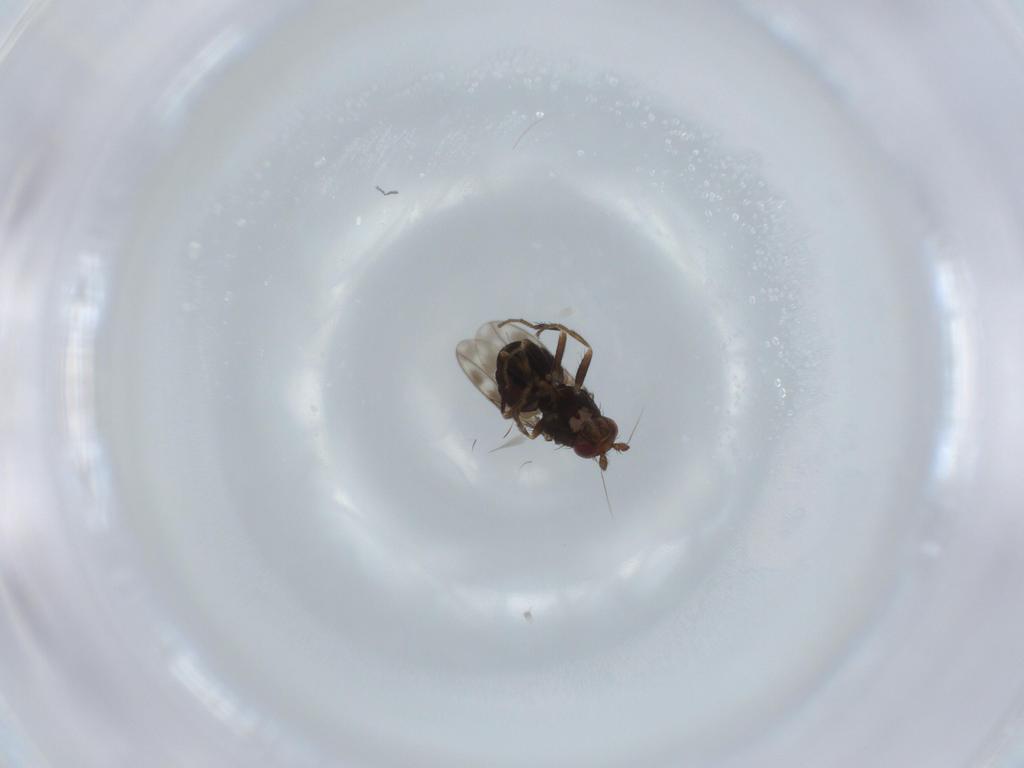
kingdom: Animalia
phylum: Arthropoda
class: Insecta
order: Diptera
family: Sphaeroceridae
